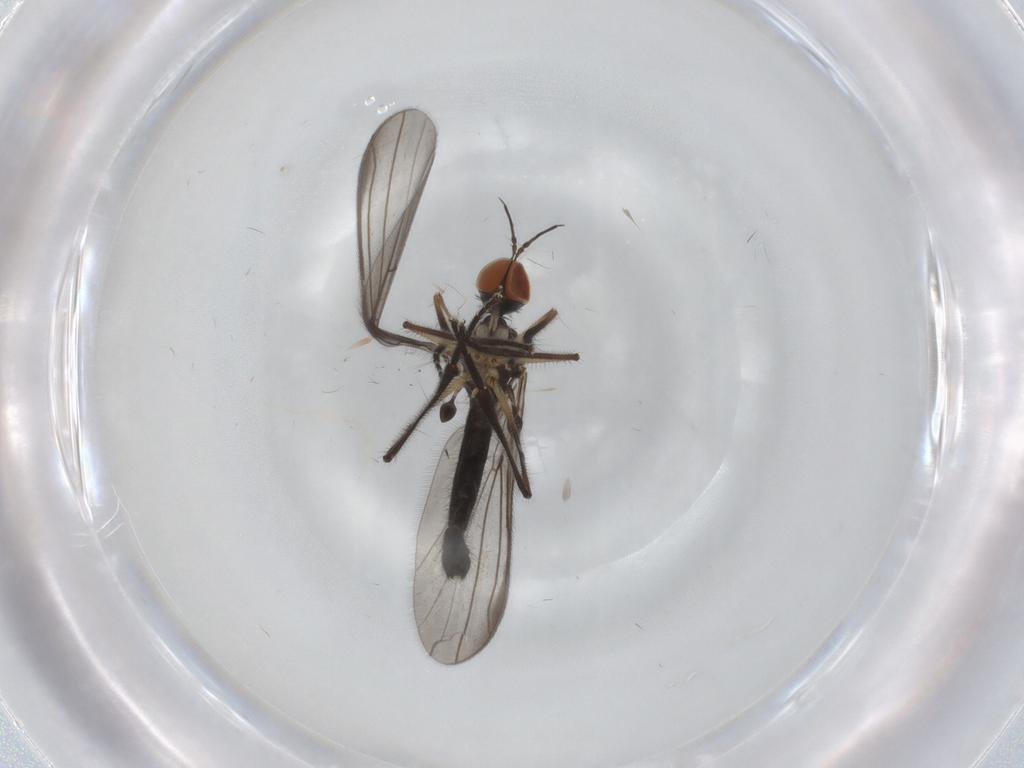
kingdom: Animalia
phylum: Arthropoda
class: Insecta
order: Diptera
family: Empididae
